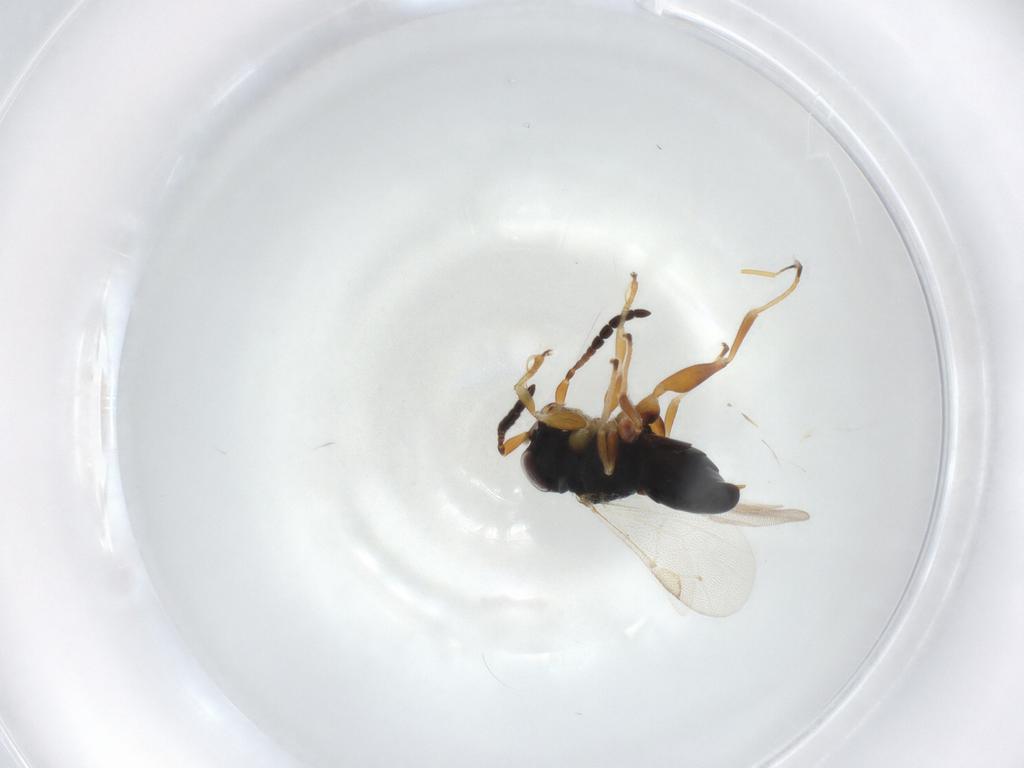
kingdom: Animalia
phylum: Arthropoda
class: Insecta
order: Hymenoptera
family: Dryinidae
